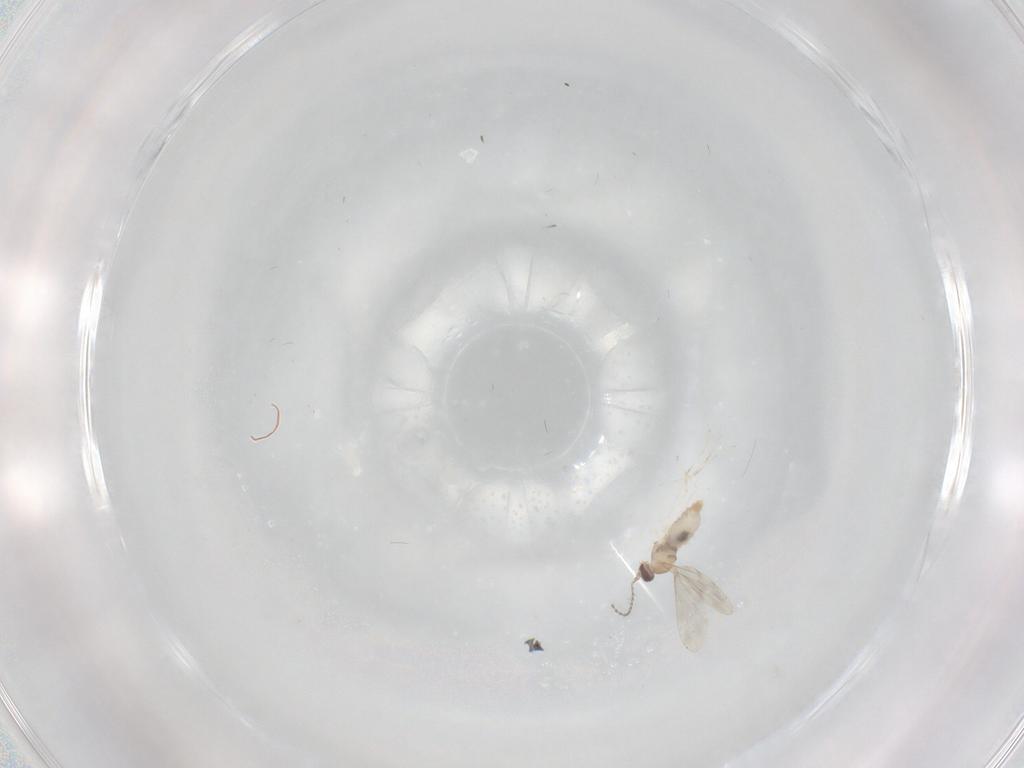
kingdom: Animalia
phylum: Arthropoda
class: Insecta
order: Diptera
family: Cecidomyiidae
